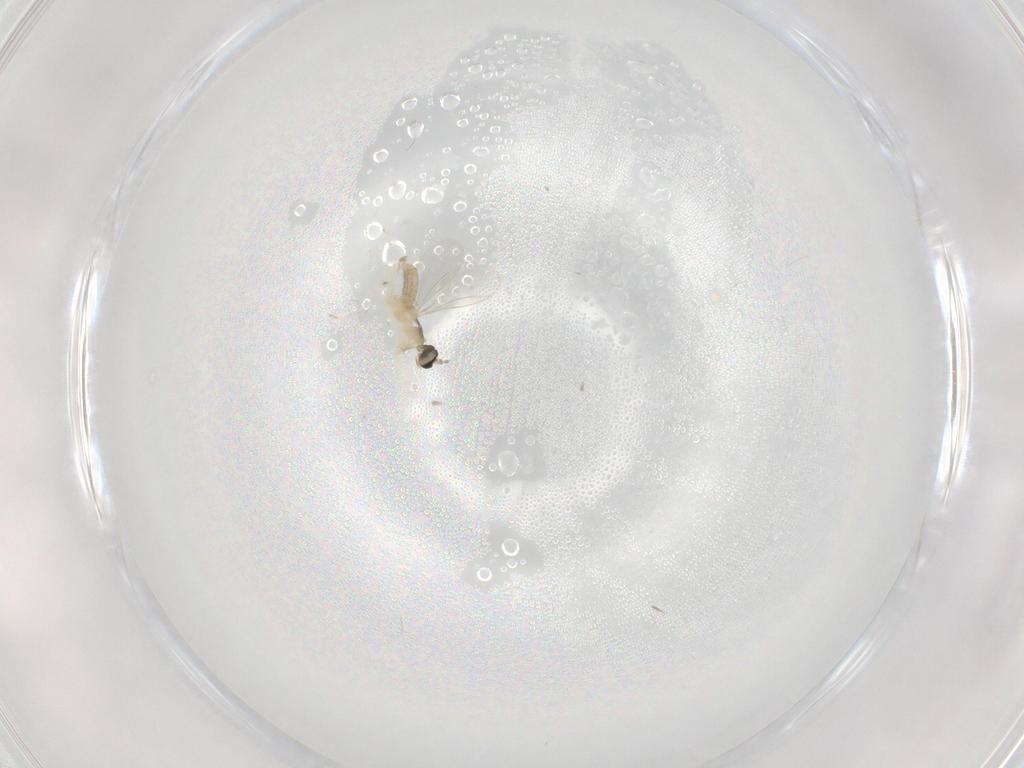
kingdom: Animalia
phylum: Arthropoda
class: Insecta
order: Diptera
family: Cecidomyiidae
